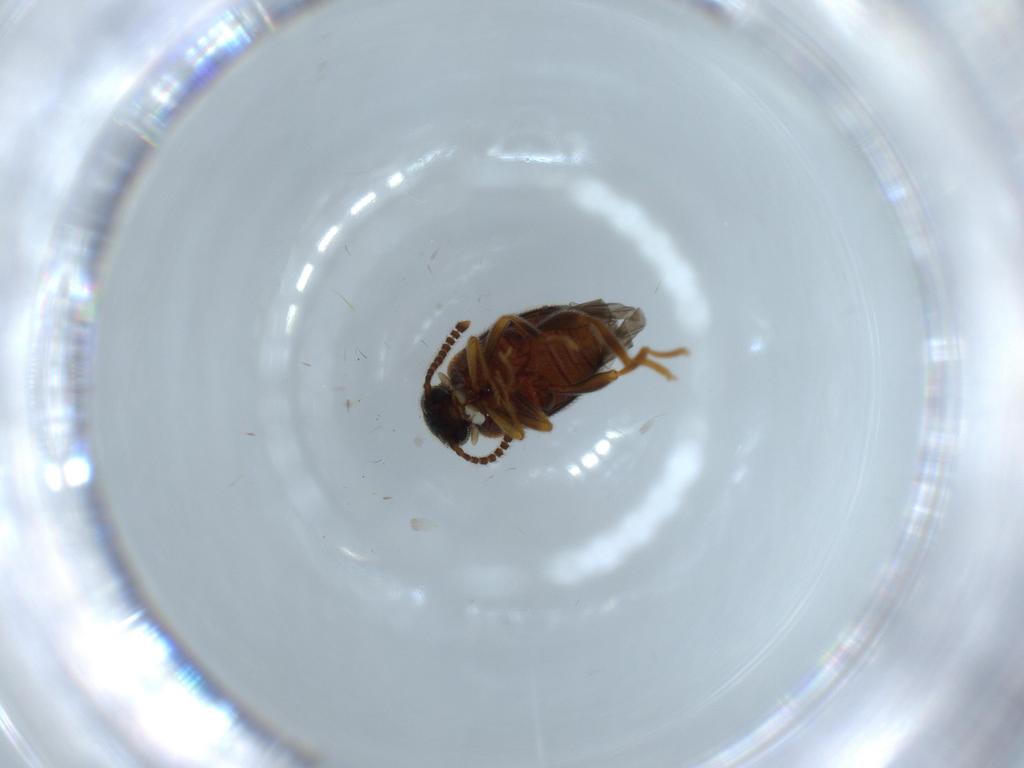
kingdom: Animalia
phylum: Arthropoda
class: Insecta
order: Coleoptera
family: Aderidae
